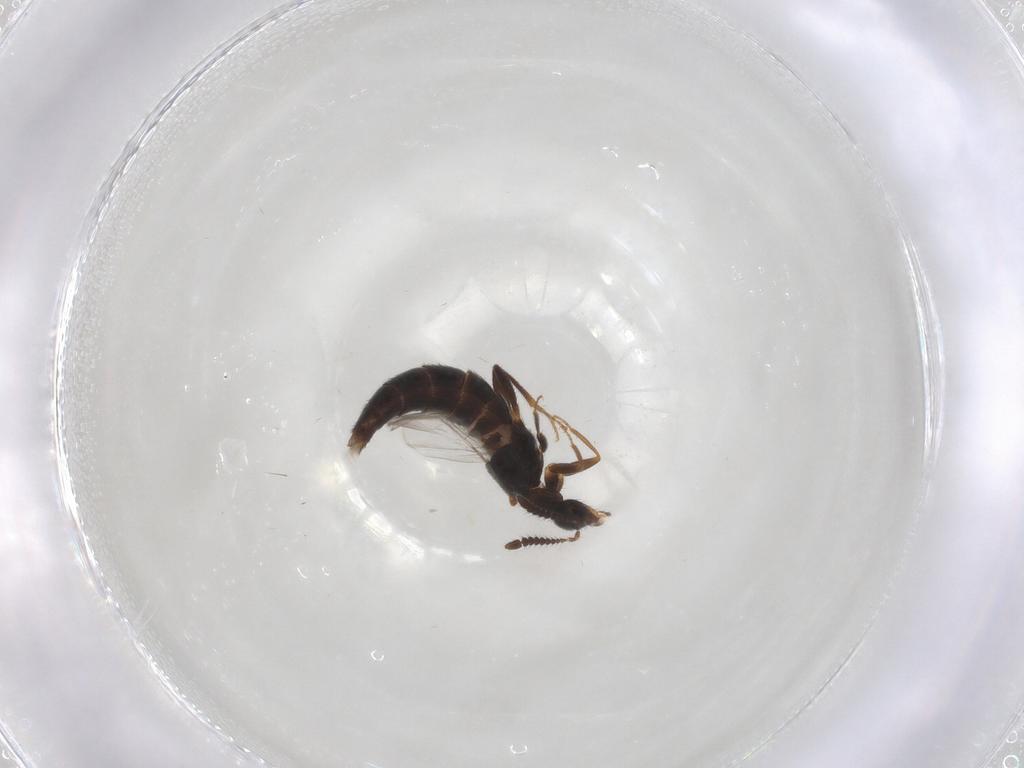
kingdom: Animalia
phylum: Arthropoda
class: Insecta
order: Coleoptera
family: Staphylinidae
